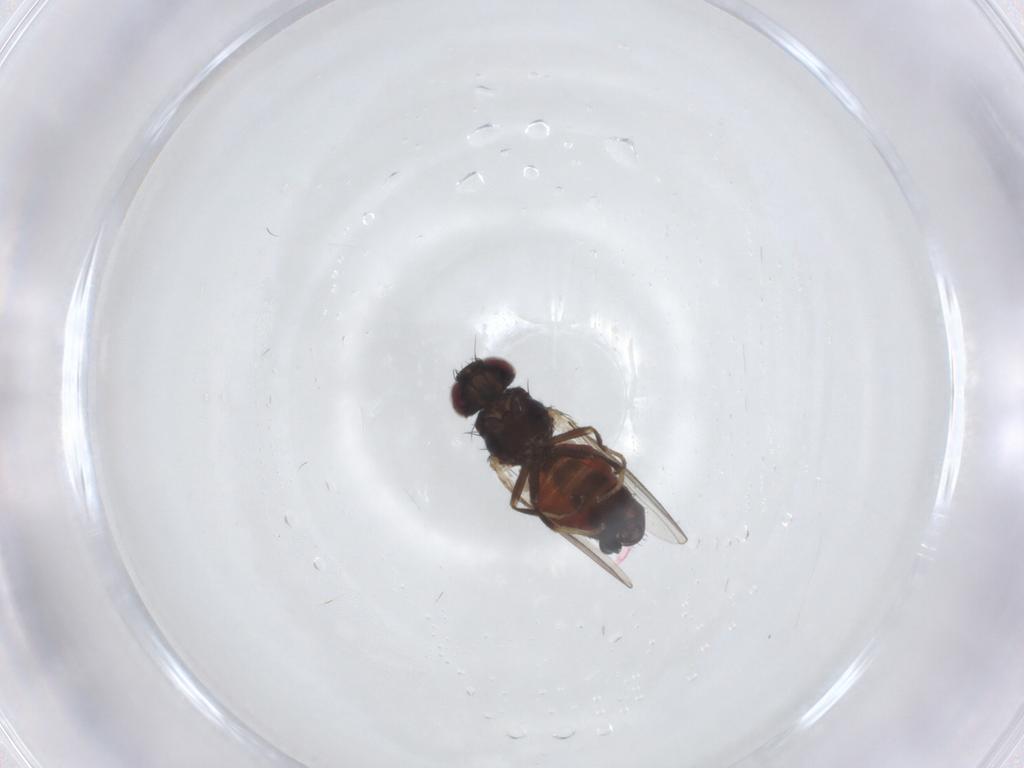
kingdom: Animalia
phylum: Arthropoda
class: Insecta
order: Diptera
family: Carnidae
